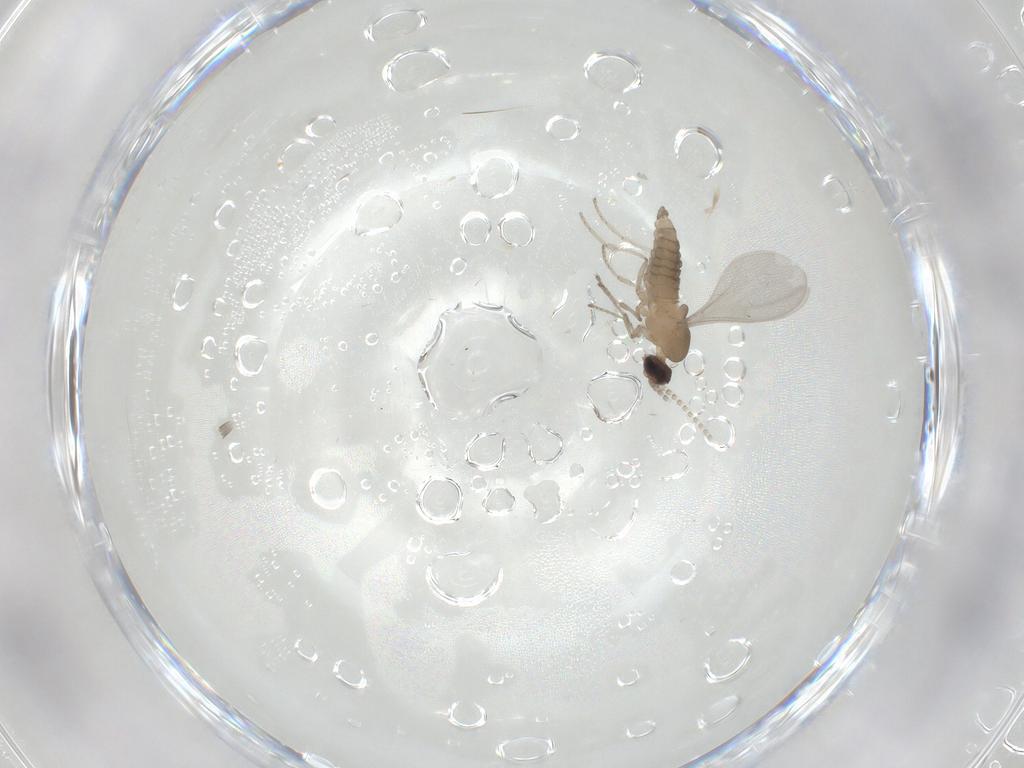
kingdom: Animalia
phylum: Arthropoda
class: Insecta
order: Diptera
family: Cecidomyiidae
